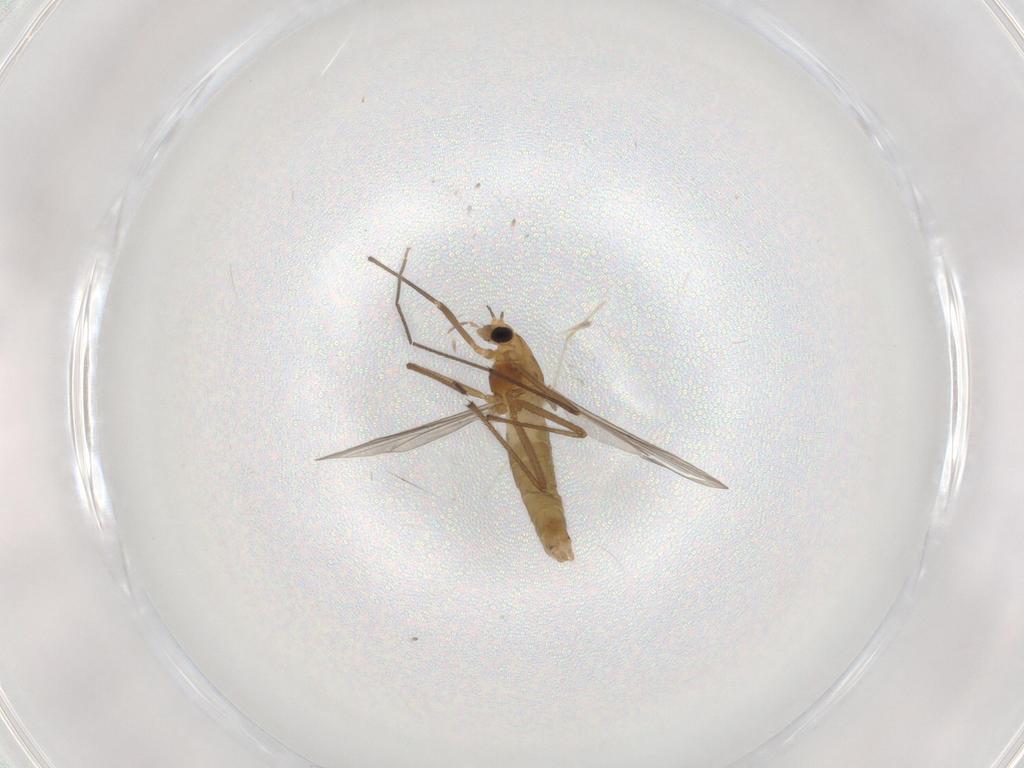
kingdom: Animalia
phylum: Arthropoda
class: Insecta
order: Diptera
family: Chironomidae
